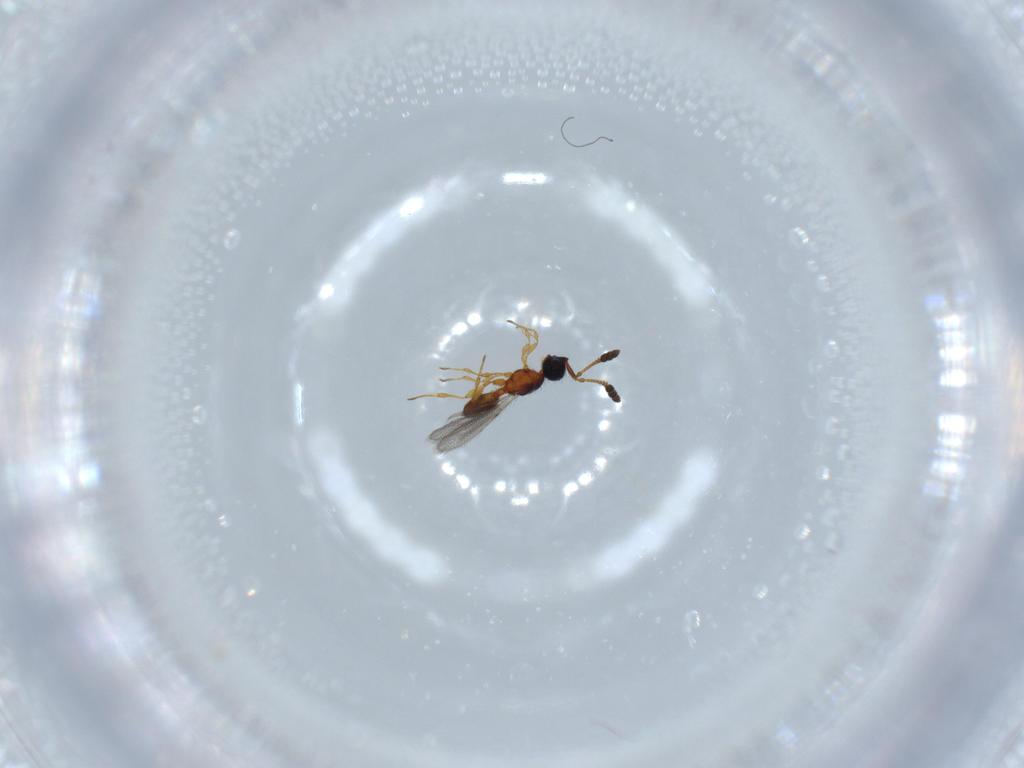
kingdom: Animalia
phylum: Arthropoda
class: Insecta
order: Hymenoptera
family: Diapriidae
